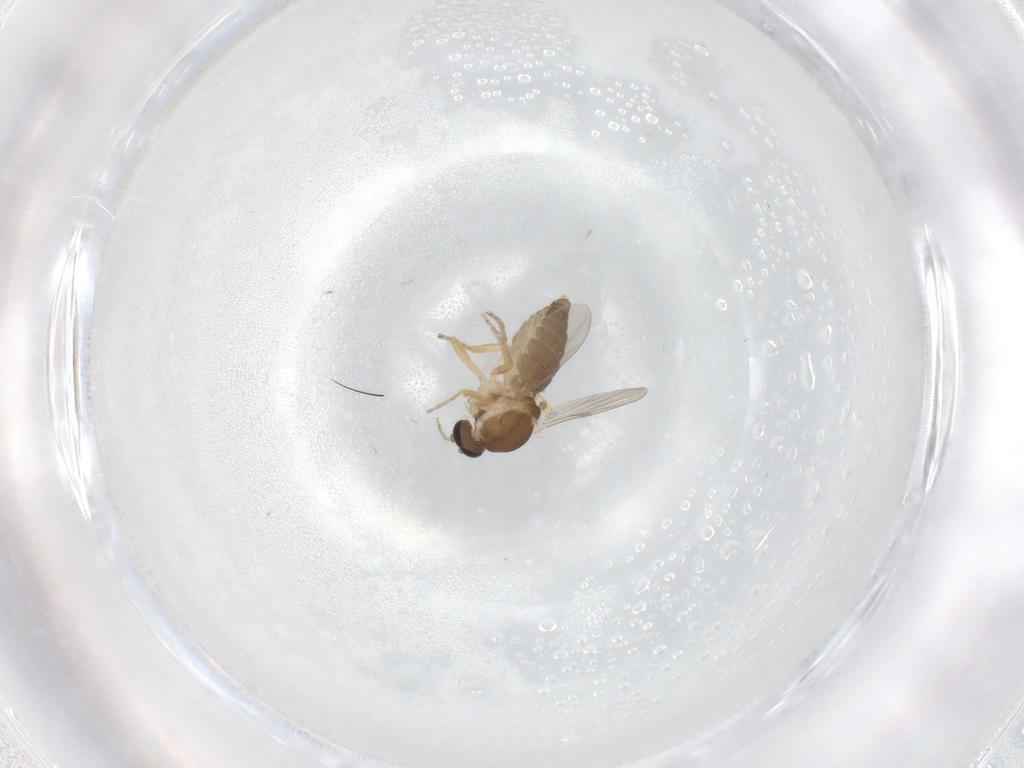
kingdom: Animalia
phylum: Arthropoda
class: Insecta
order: Diptera
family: Ceratopogonidae
